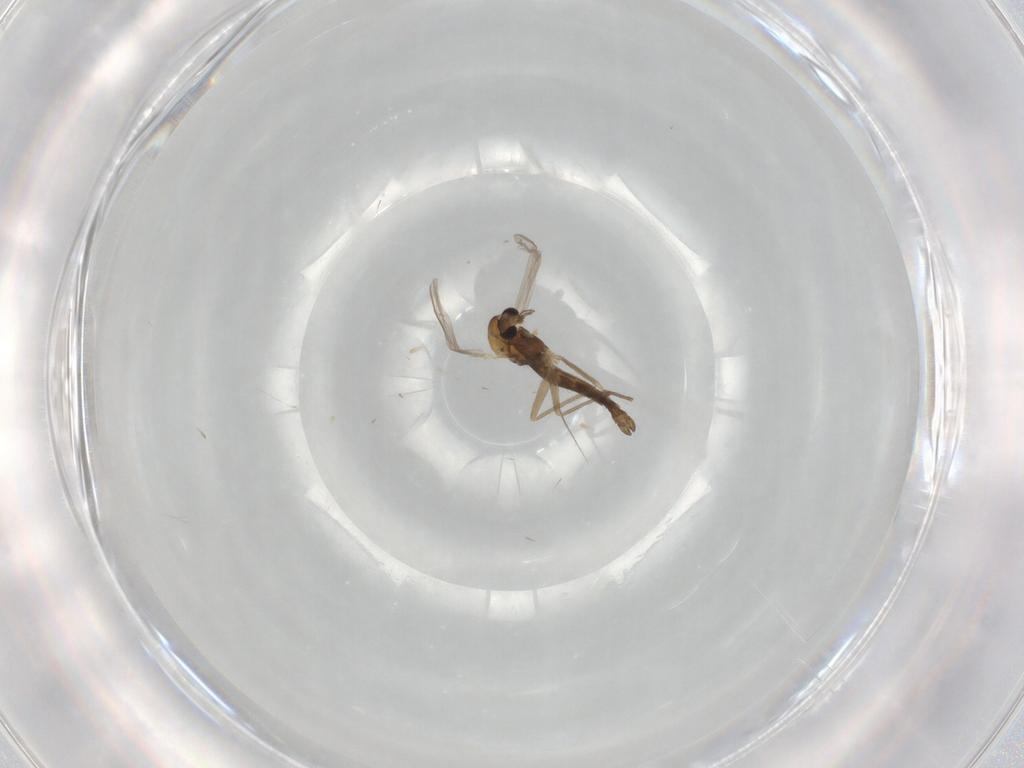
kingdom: Animalia
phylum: Arthropoda
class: Insecta
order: Diptera
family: Chironomidae
